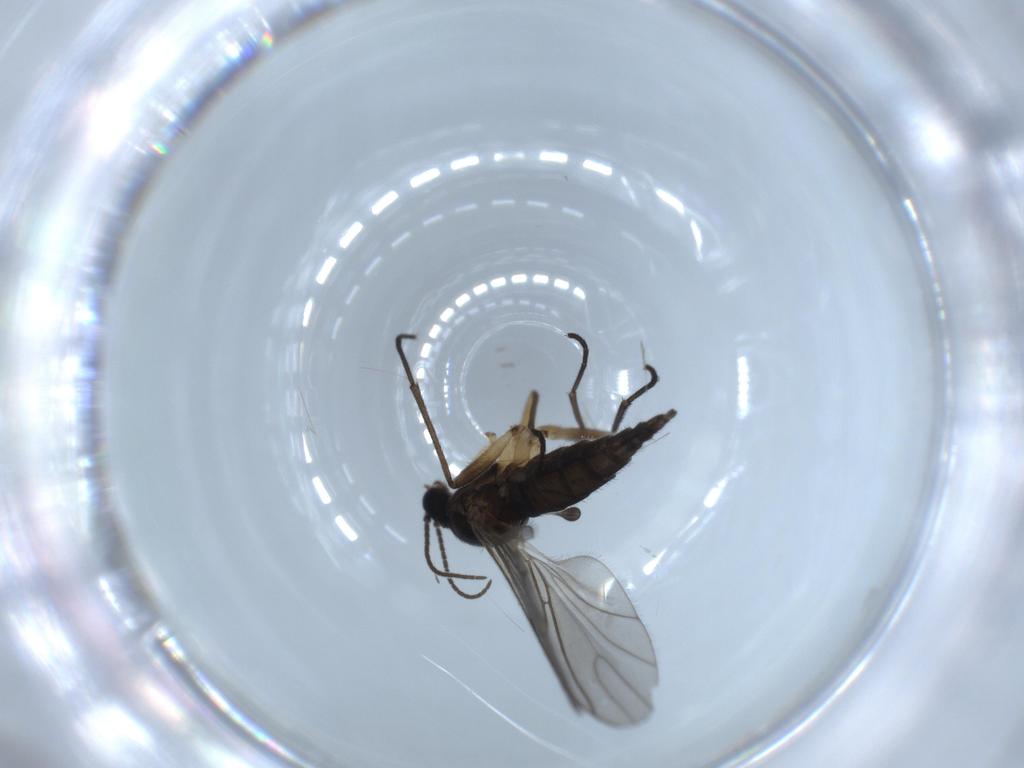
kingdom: Animalia
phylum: Arthropoda
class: Insecta
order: Diptera
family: Sciaridae
